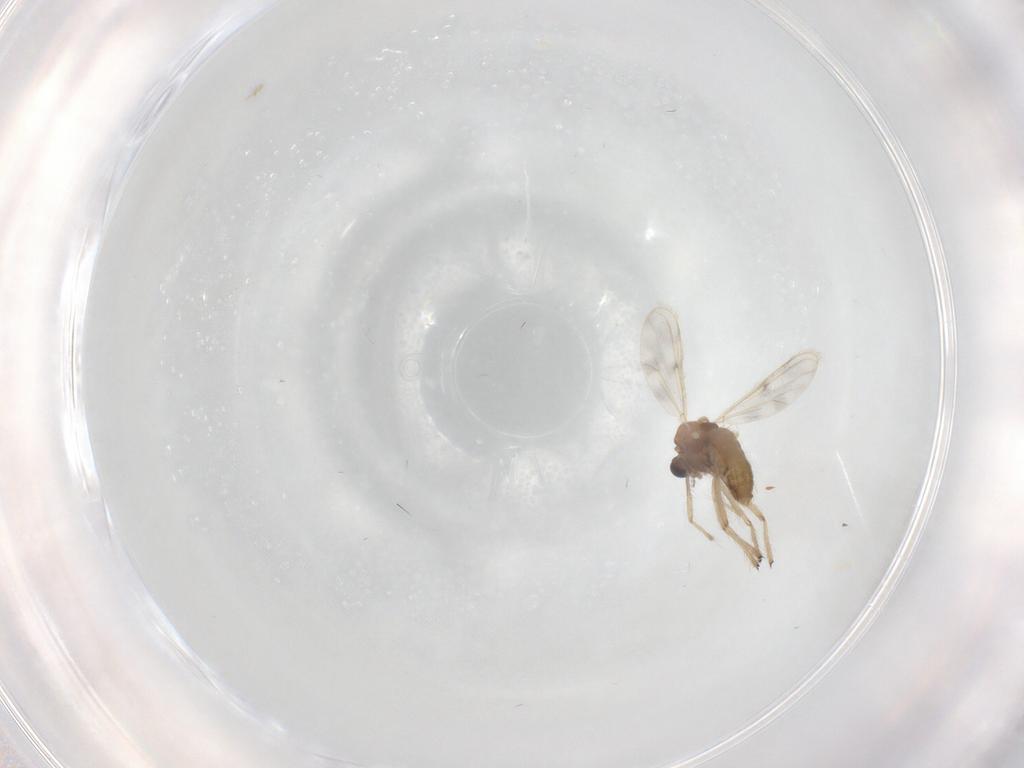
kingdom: Animalia
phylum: Arthropoda
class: Insecta
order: Diptera
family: Chironomidae
